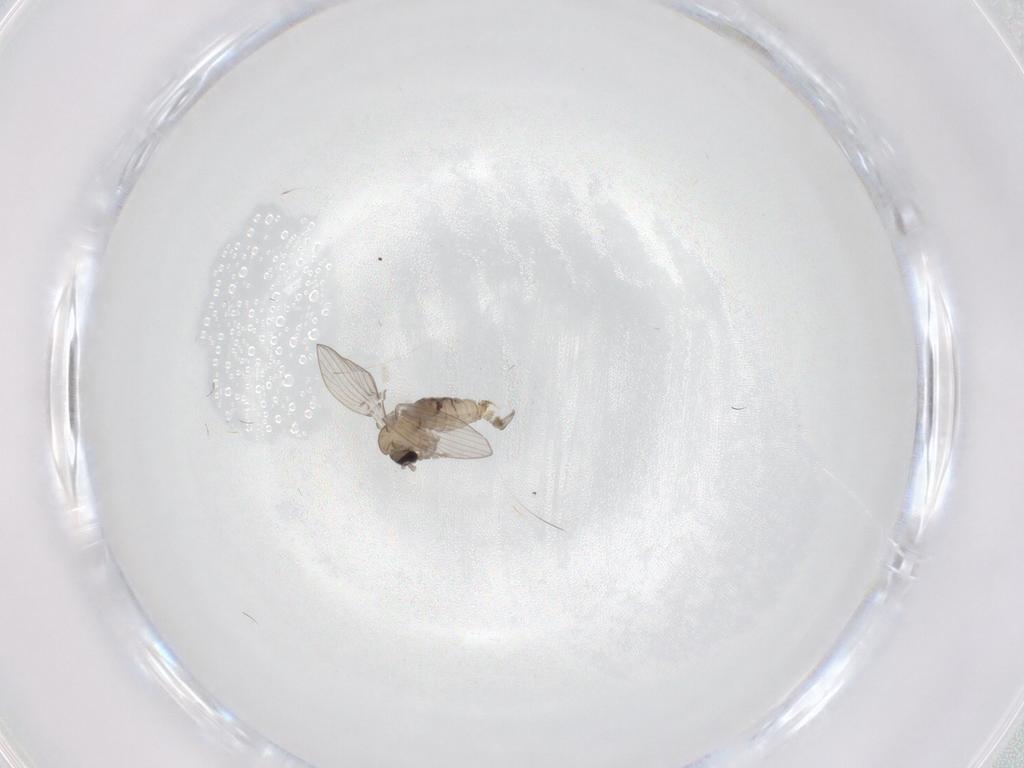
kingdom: Animalia
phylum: Arthropoda
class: Insecta
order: Diptera
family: Psychodidae
